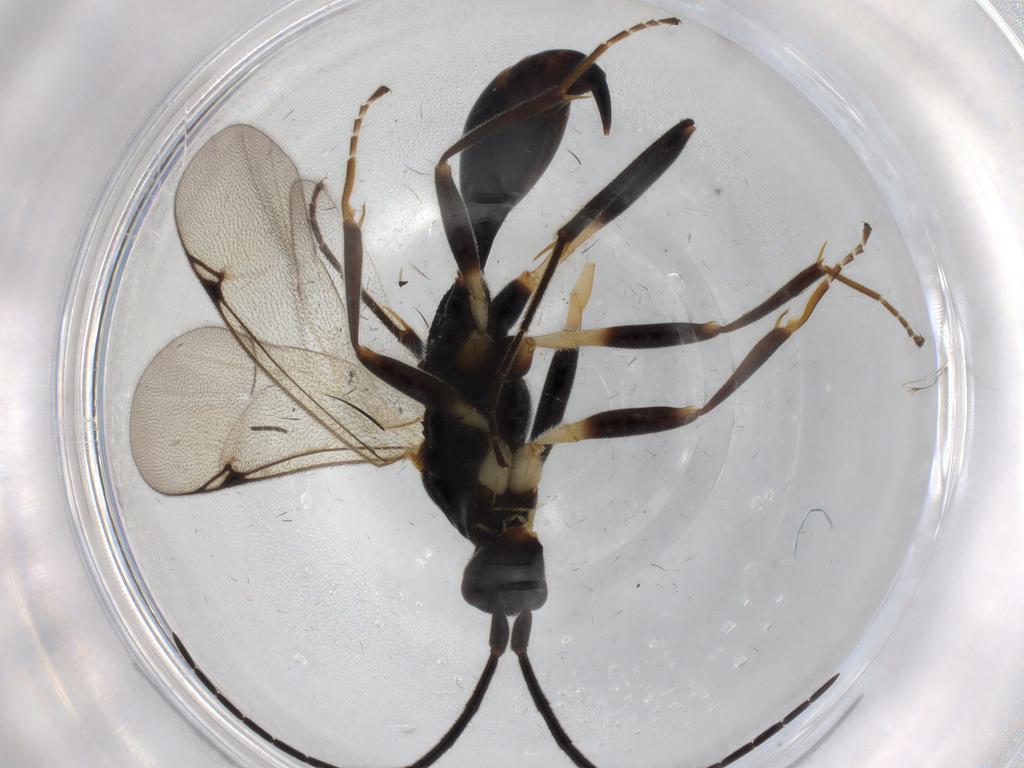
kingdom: Animalia
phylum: Arthropoda
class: Insecta
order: Hymenoptera
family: Proctotrupidae
